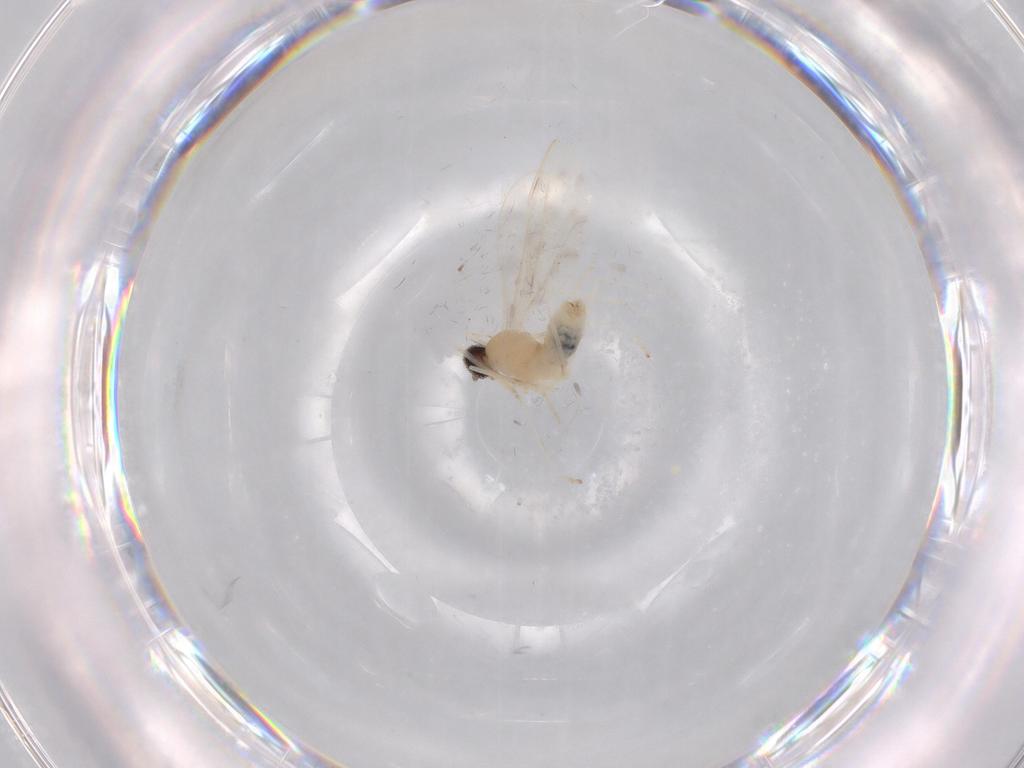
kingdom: Animalia
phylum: Arthropoda
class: Insecta
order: Diptera
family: Cecidomyiidae
